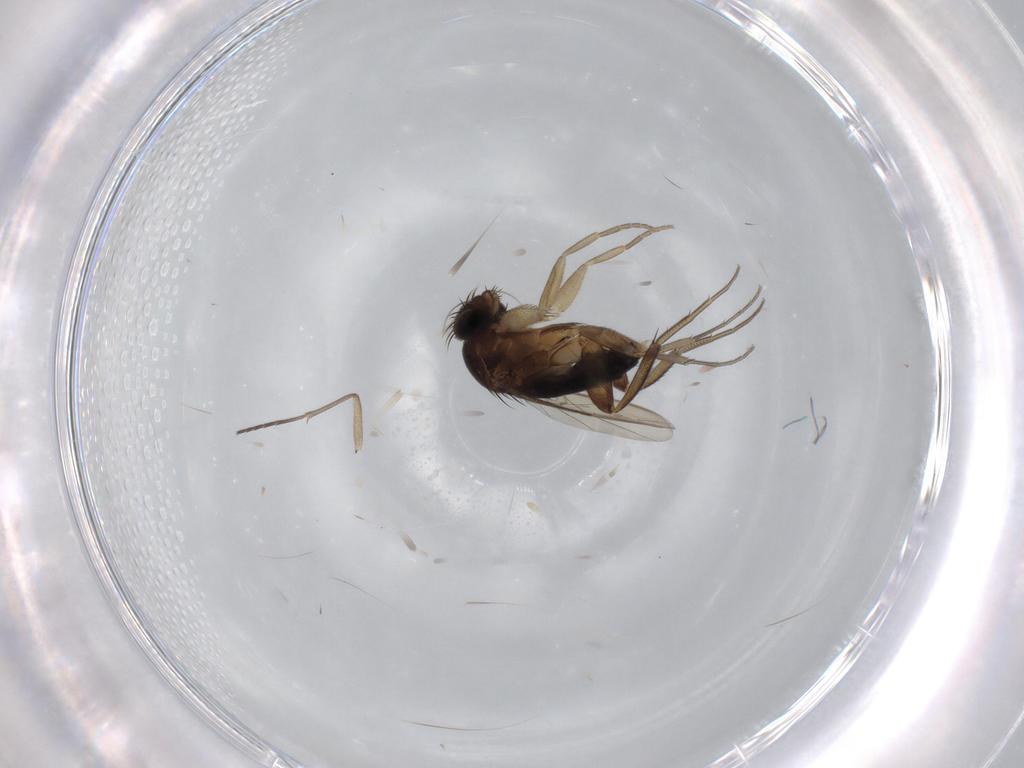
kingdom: Animalia
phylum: Arthropoda
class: Insecta
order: Diptera
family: Phoridae
